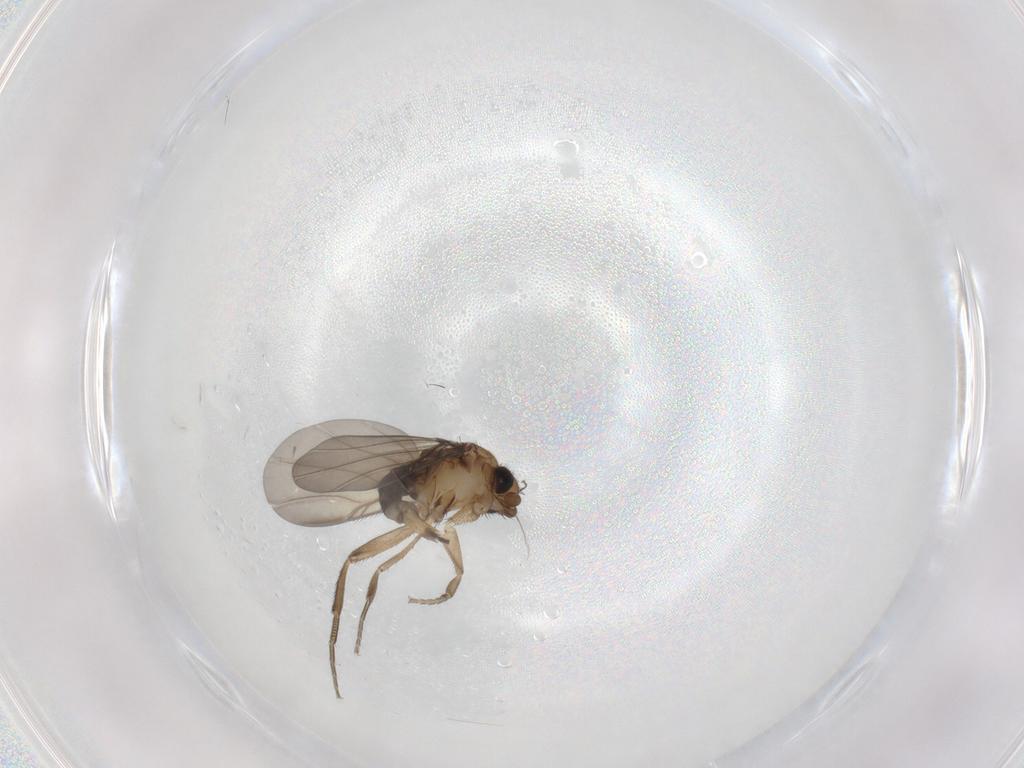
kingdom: Animalia
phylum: Arthropoda
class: Insecta
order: Diptera
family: Phoridae
